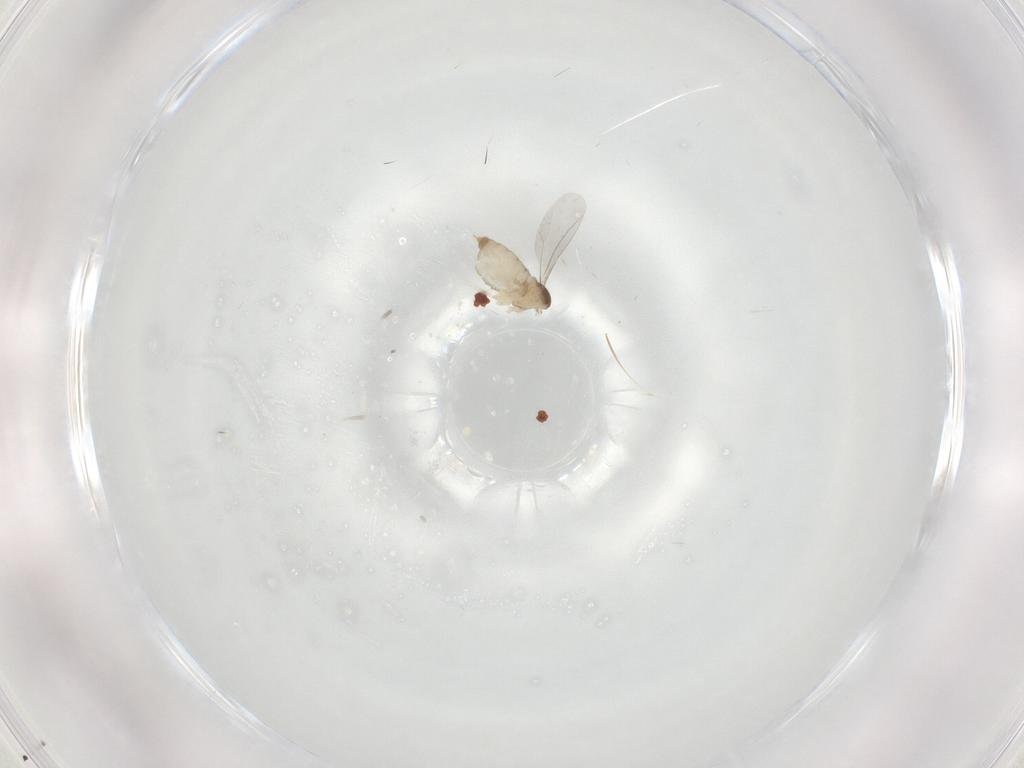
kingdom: Animalia
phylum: Arthropoda
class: Insecta
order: Diptera
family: Cecidomyiidae
